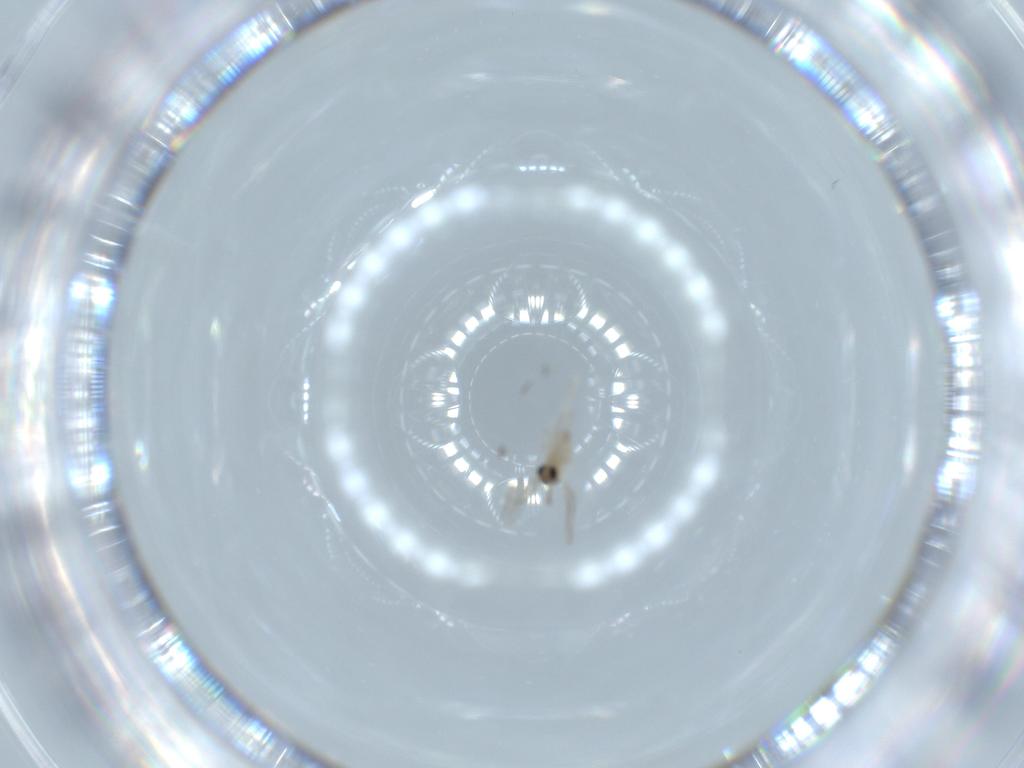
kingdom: Animalia
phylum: Arthropoda
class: Insecta
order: Diptera
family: Cecidomyiidae
